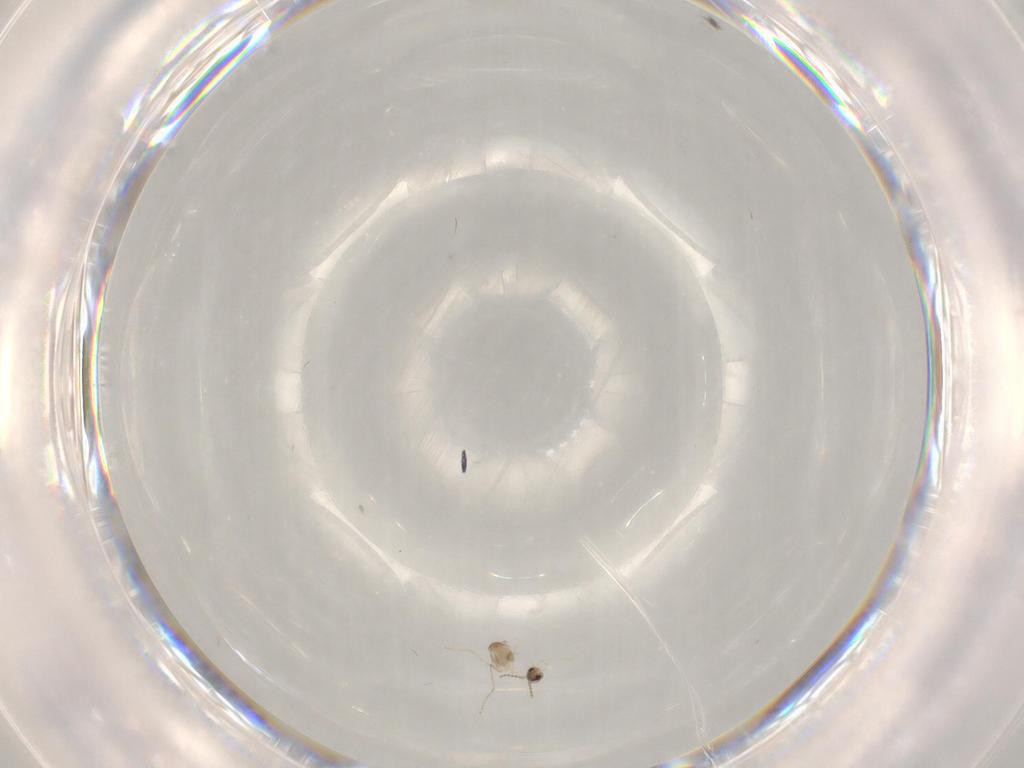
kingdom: Animalia
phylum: Arthropoda
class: Insecta
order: Diptera
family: Cecidomyiidae
